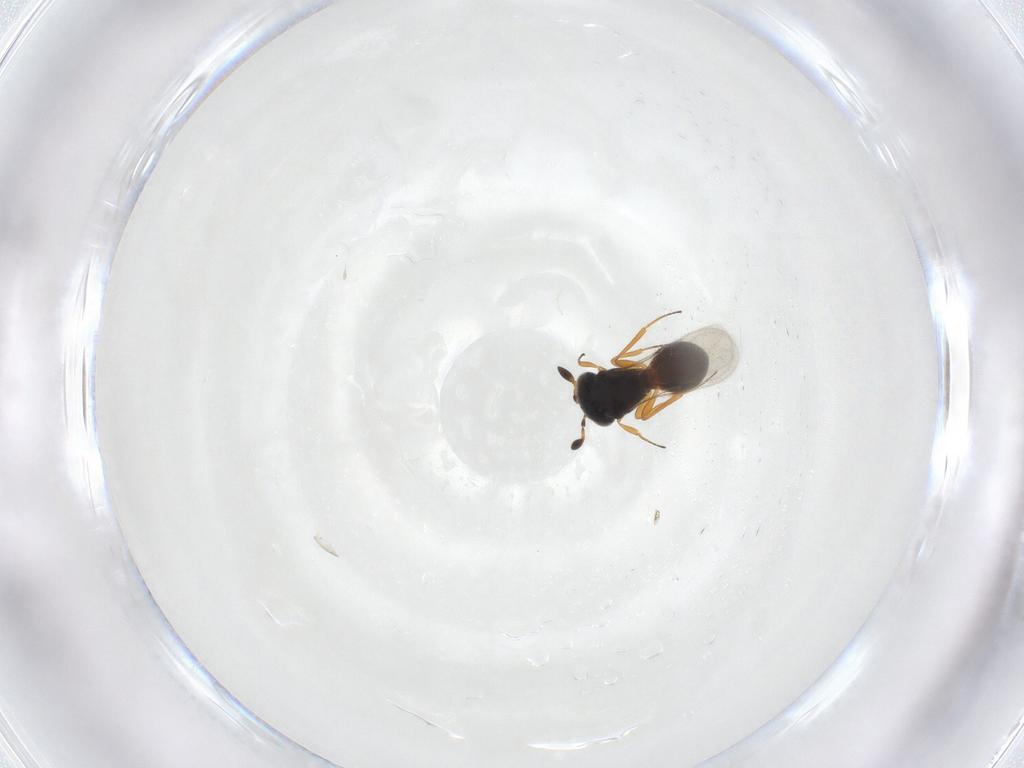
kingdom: Animalia
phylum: Arthropoda
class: Insecta
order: Hymenoptera
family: Scelionidae
